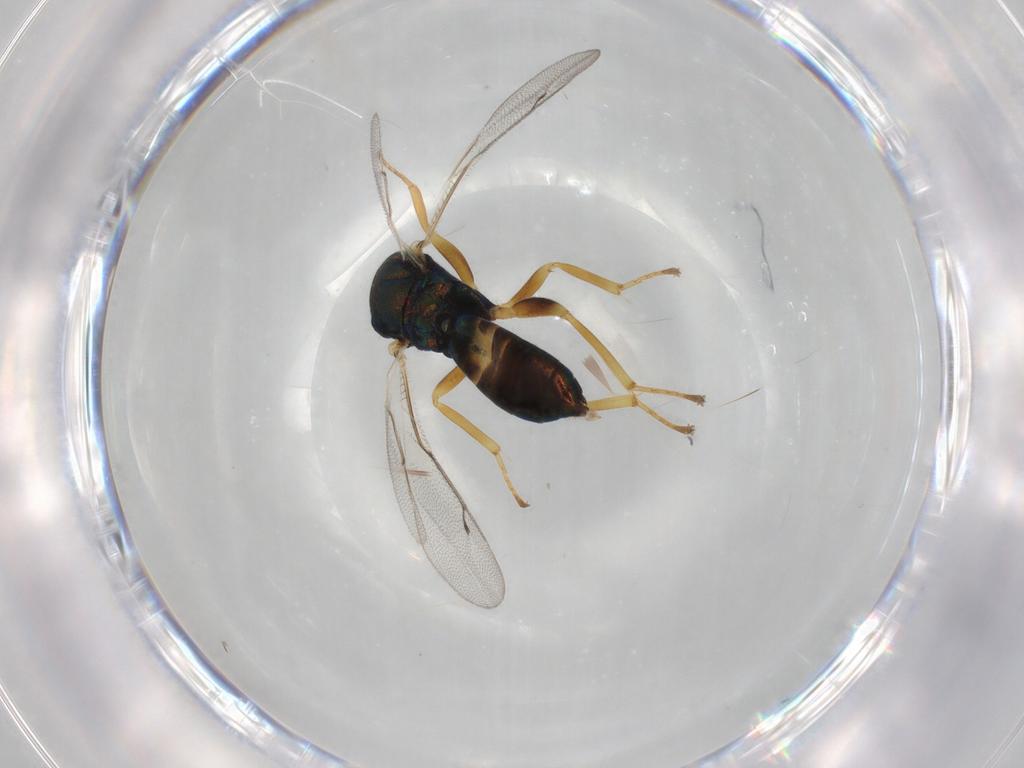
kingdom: Animalia
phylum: Arthropoda
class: Insecta
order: Hymenoptera
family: Pteromalidae
